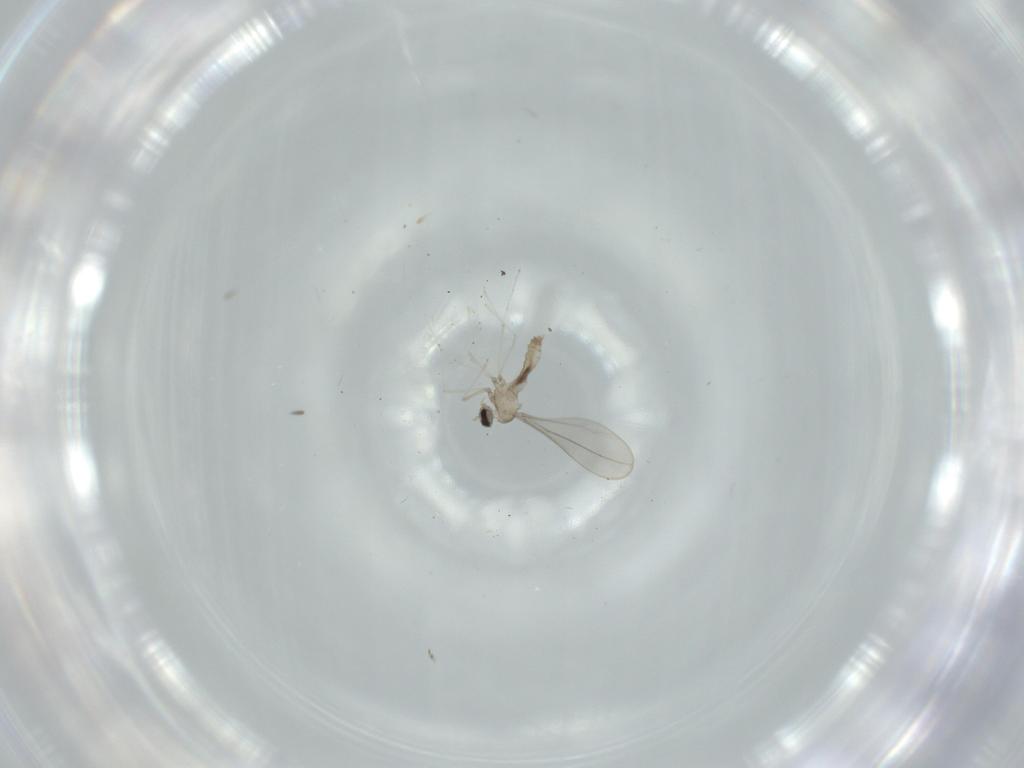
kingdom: Animalia
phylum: Arthropoda
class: Insecta
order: Diptera
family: Cecidomyiidae
